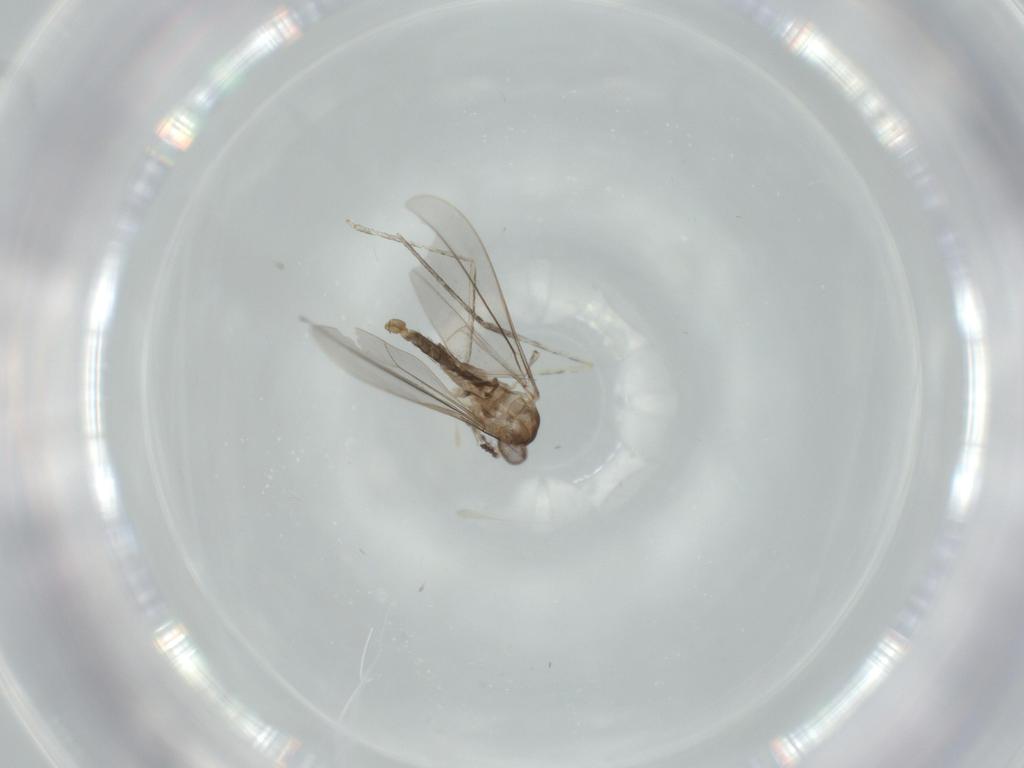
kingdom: Animalia
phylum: Arthropoda
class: Insecta
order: Diptera
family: Cecidomyiidae
